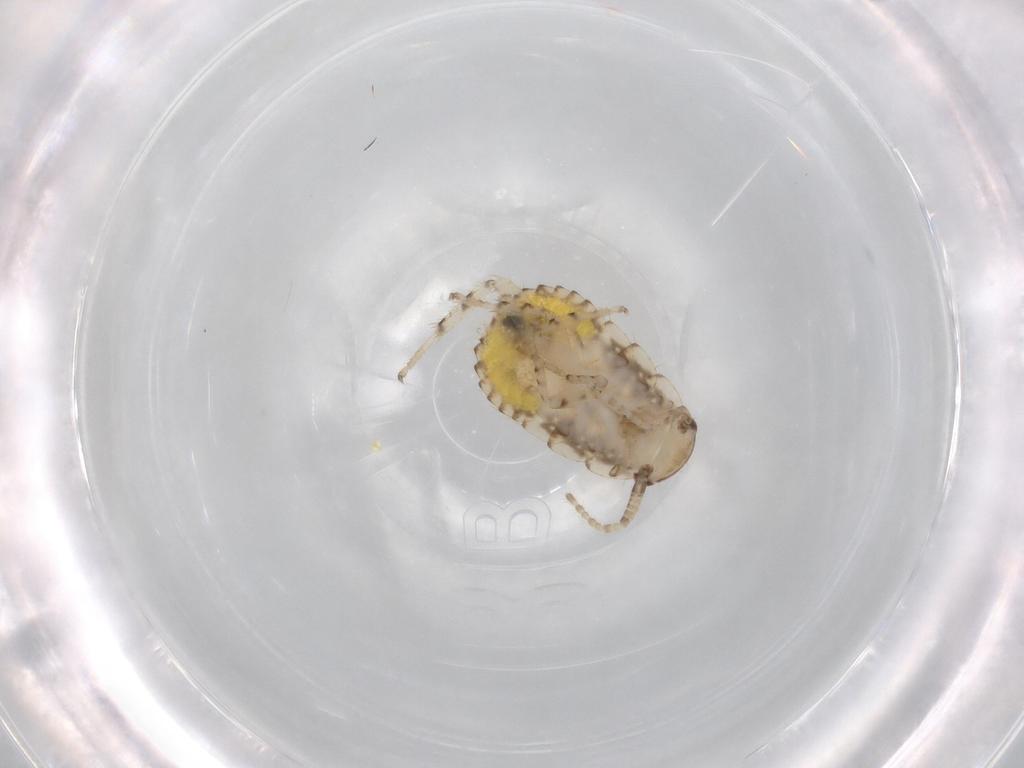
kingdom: Animalia
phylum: Arthropoda
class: Insecta
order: Blattodea
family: Ectobiidae
